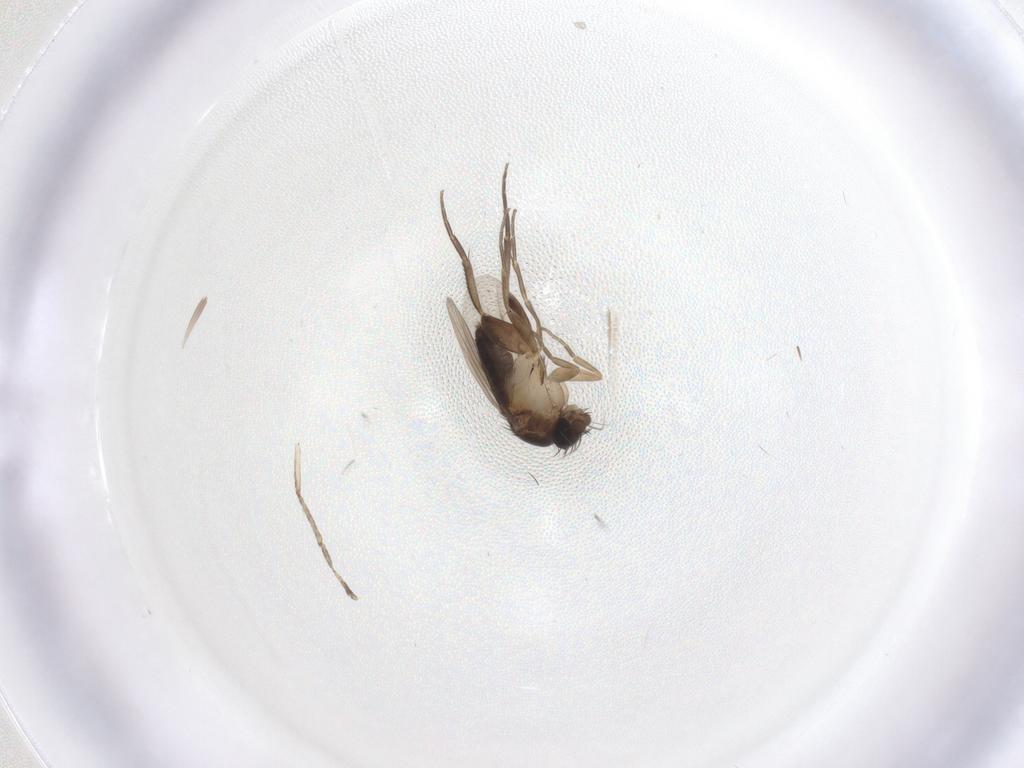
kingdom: Animalia
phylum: Arthropoda
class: Insecta
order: Diptera
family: Phoridae
